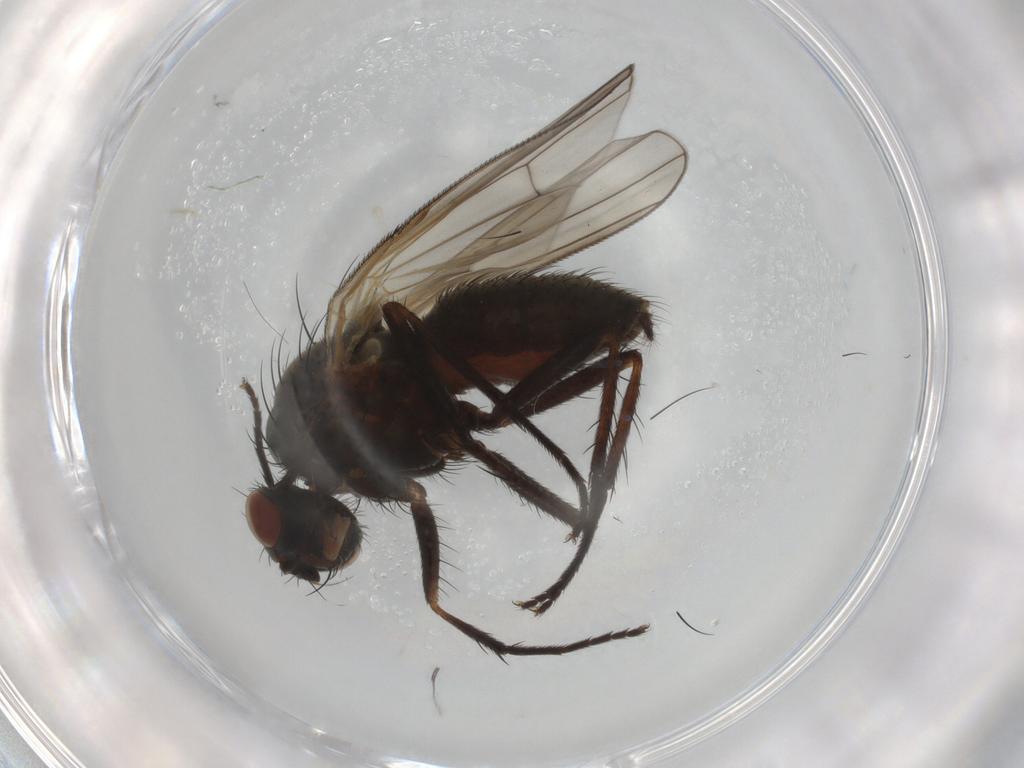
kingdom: Animalia
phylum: Arthropoda
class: Insecta
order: Diptera
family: Anthomyiidae
